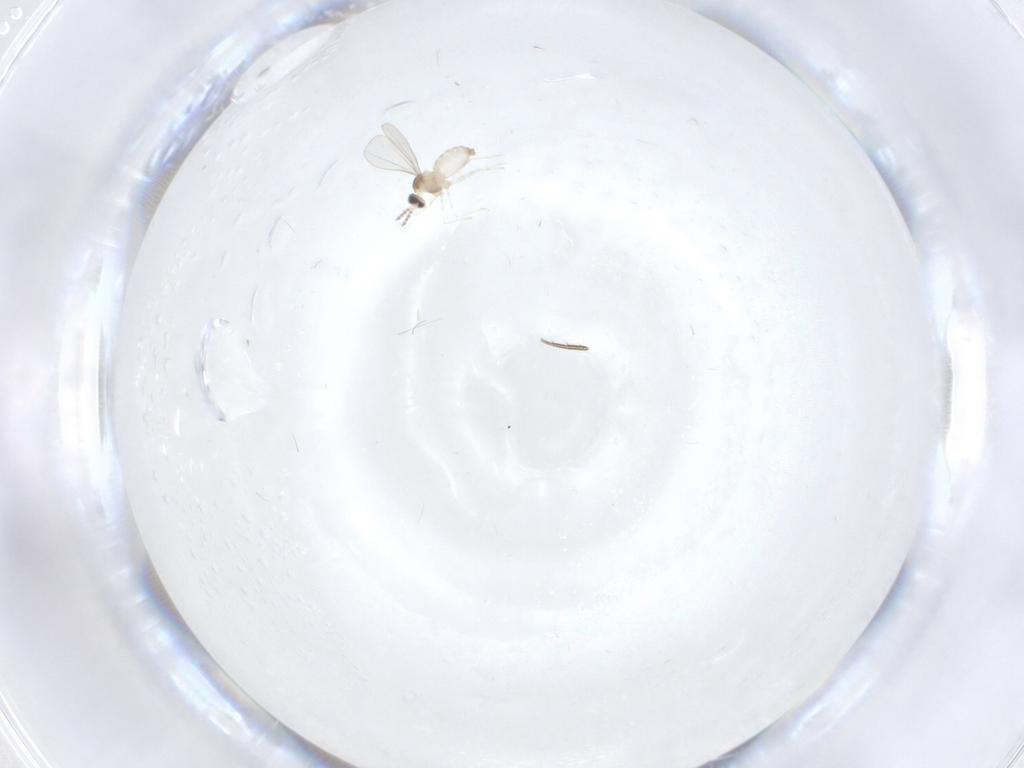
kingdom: Animalia
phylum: Arthropoda
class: Insecta
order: Diptera
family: Cecidomyiidae
